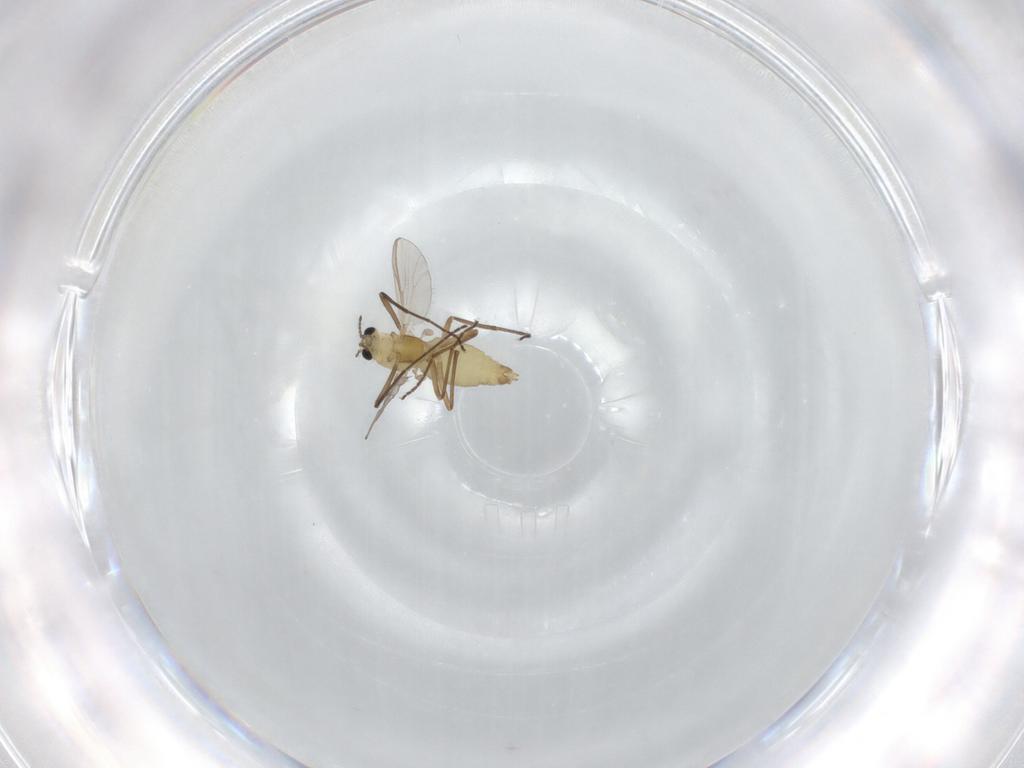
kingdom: Animalia
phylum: Arthropoda
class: Insecta
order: Diptera
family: Chironomidae
